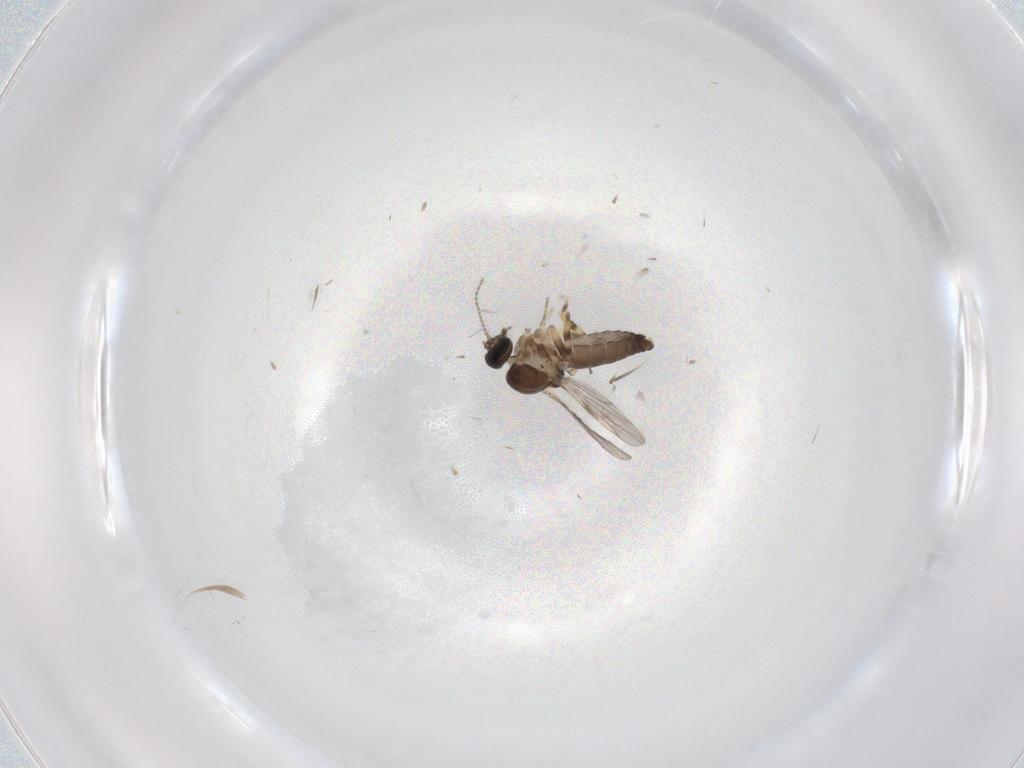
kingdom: Animalia
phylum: Arthropoda
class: Insecta
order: Diptera
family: Ceratopogonidae
